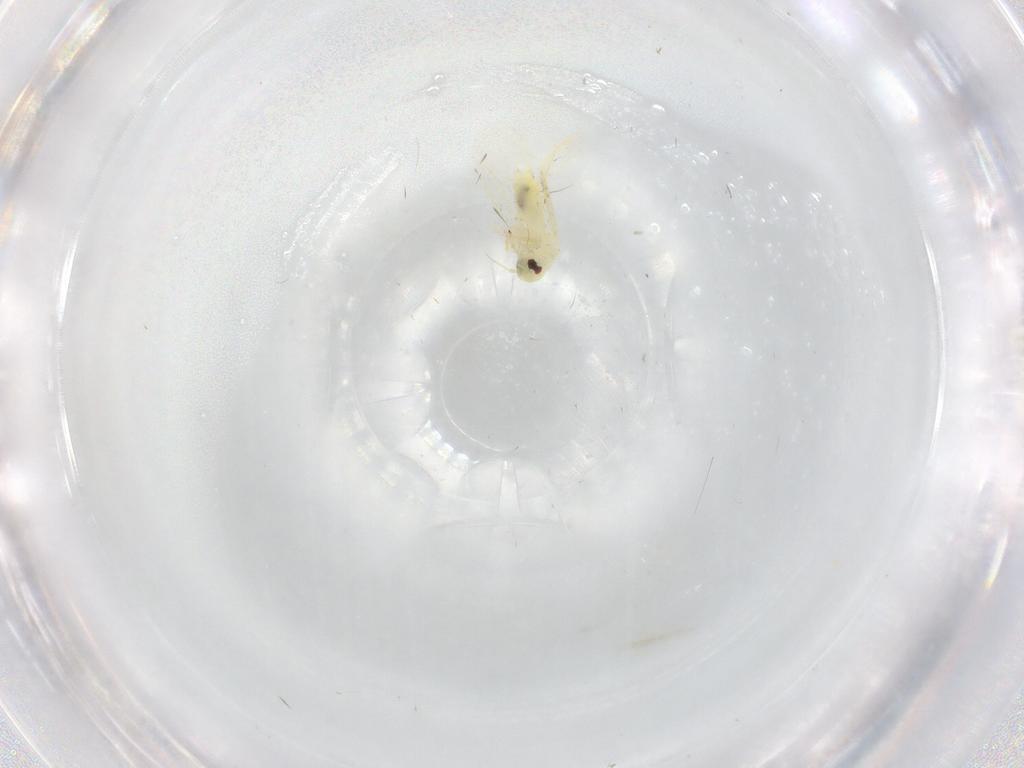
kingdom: Animalia
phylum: Arthropoda
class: Insecta
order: Hemiptera
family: Aleyrodidae
